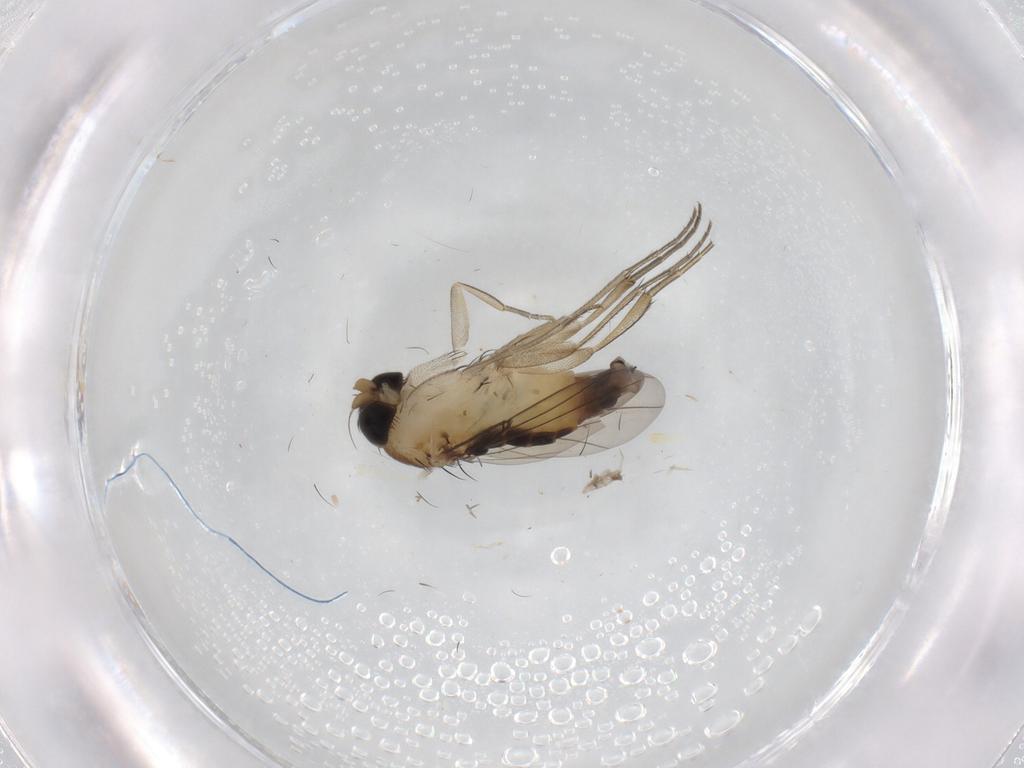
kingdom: Animalia
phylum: Arthropoda
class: Insecta
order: Diptera
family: Phoridae
